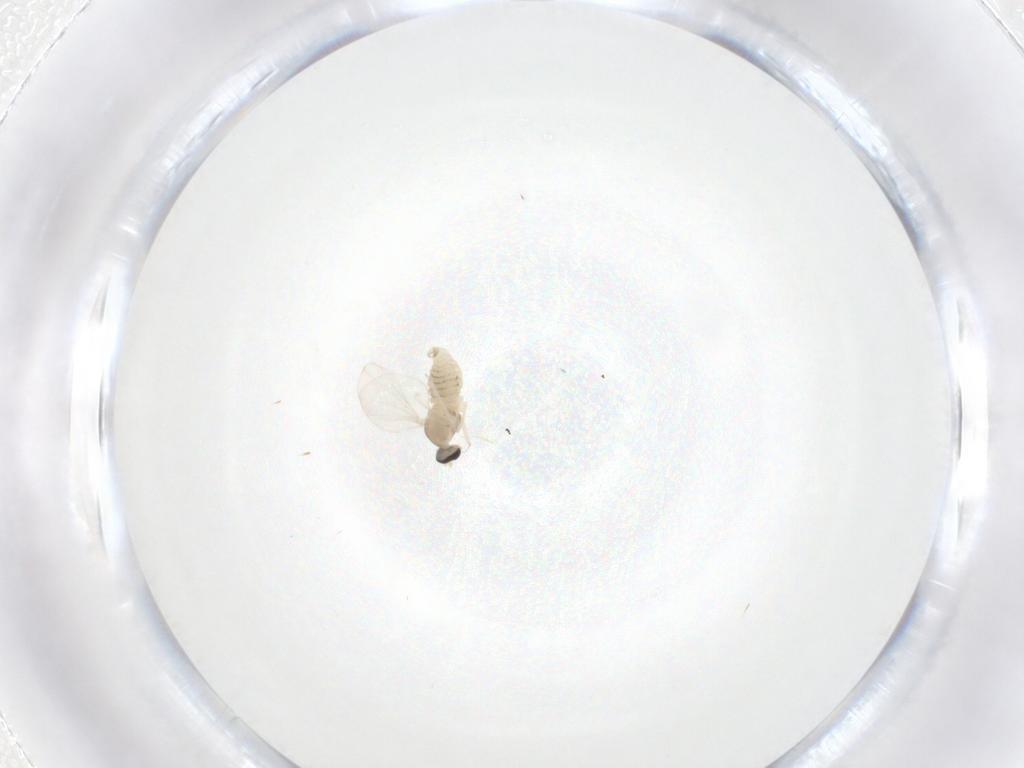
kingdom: Animalia
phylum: Arthropoda
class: Insecta
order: Diptera
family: Cecidomyiidae
